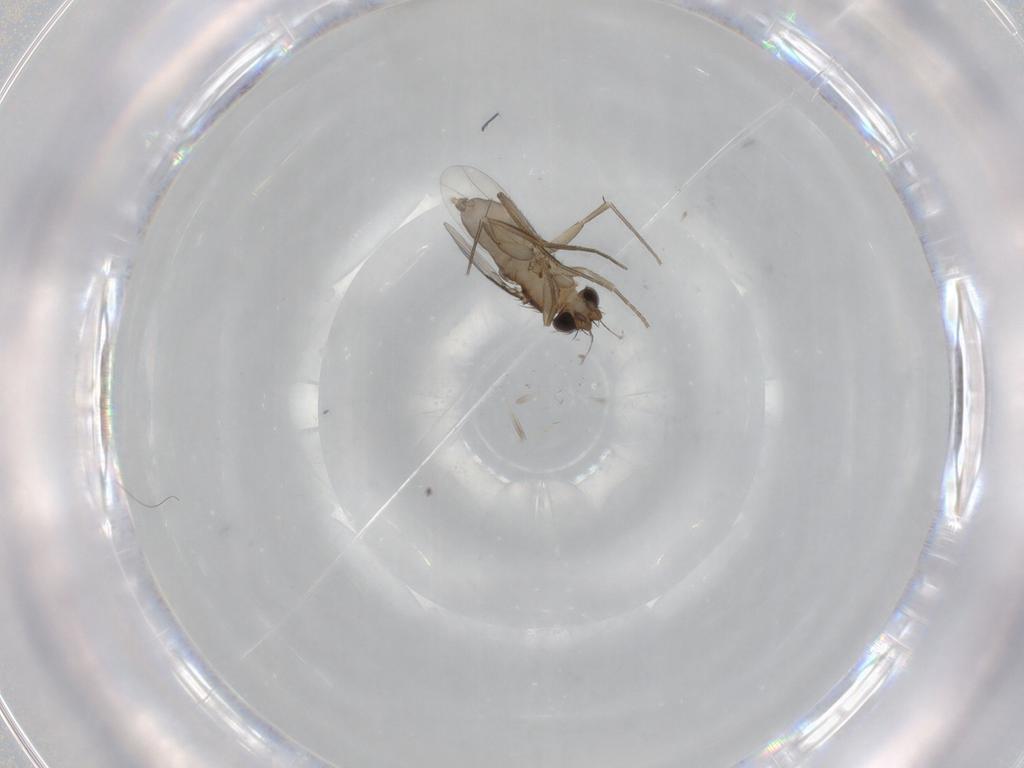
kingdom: Animalia
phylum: Arthropoda
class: Insecta
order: Diptera
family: Phoridae
